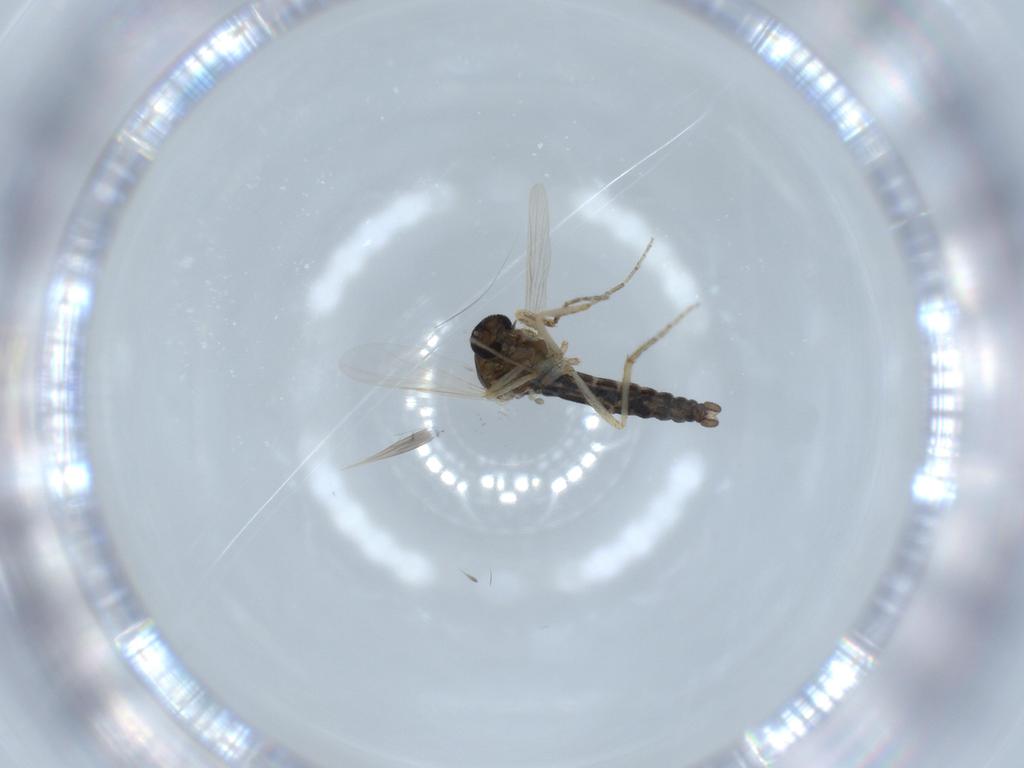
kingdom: Animalia
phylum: Arthropoda
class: Insecta
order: Diptera
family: Ceratopogonidae
